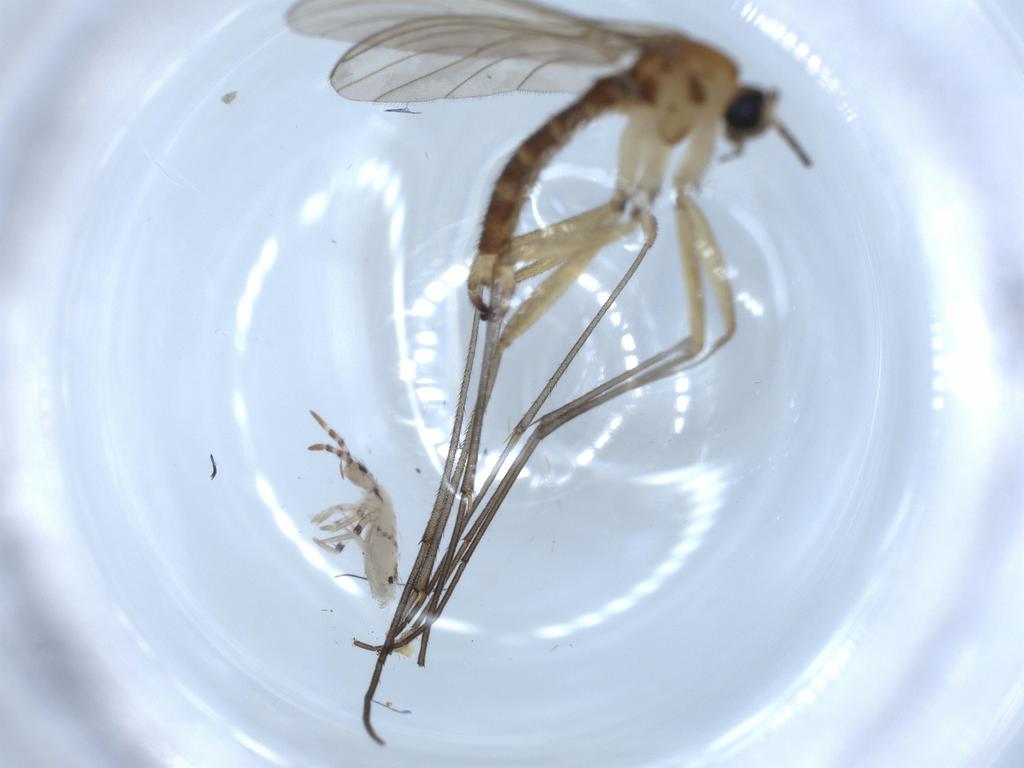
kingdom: Animalia
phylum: Arthropoda
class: Insecta
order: Diptera
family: Sciaridae
